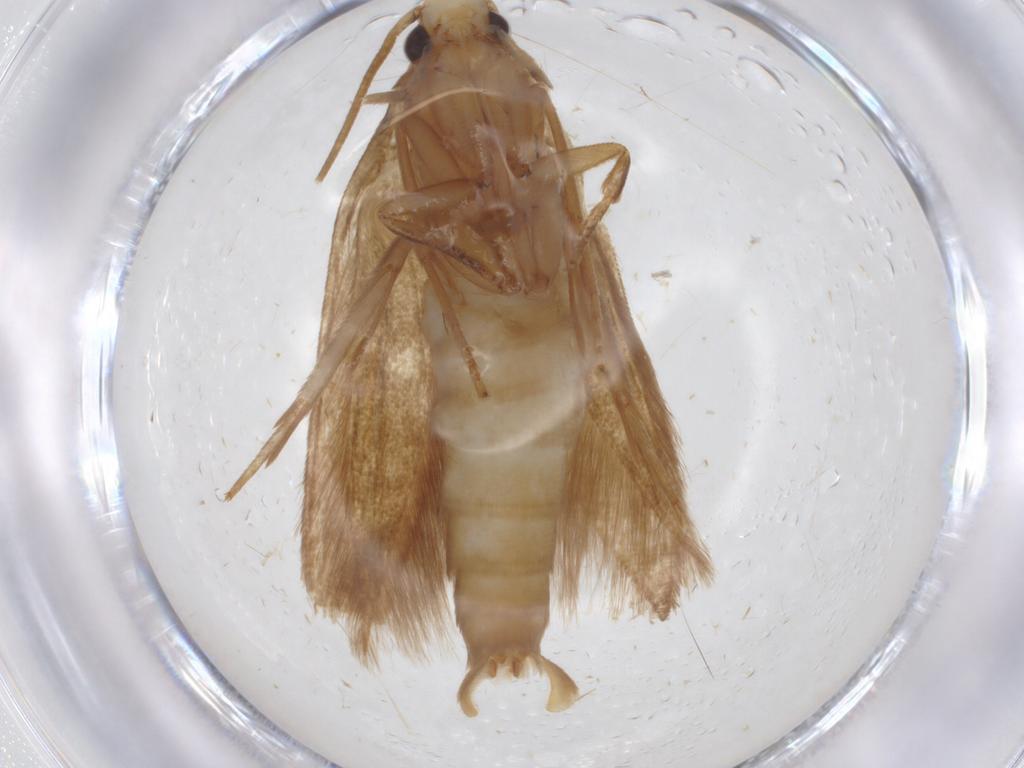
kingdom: Animalia
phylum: Arthropoda
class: Insecta
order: Lepidoptera
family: Tineidae
